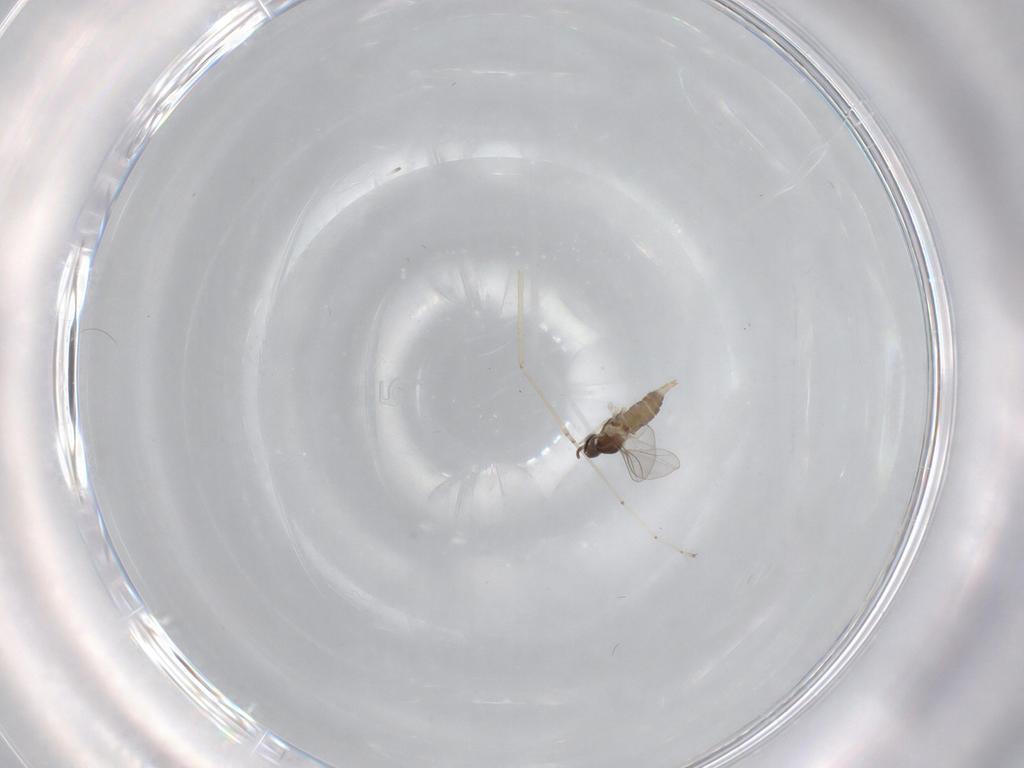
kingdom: Animalia
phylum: Arthropoda
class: Insecta
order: Diptera
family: Cecidomyiidae
